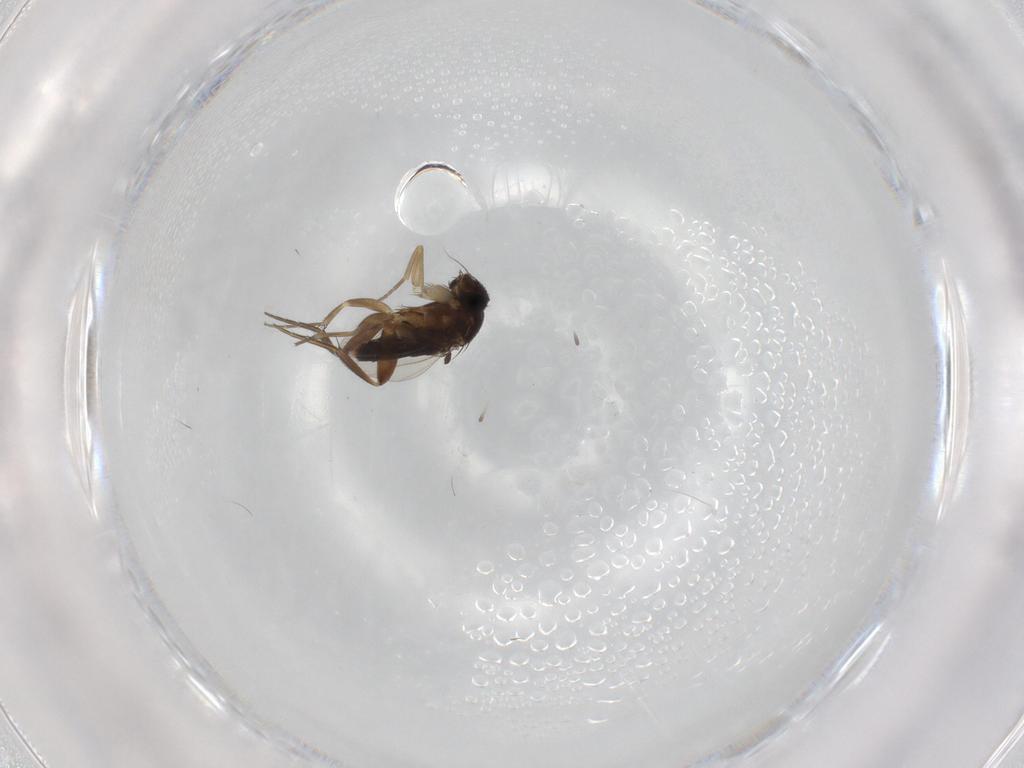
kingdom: Animalia
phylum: Arthropoda
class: Insecta
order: Diptera
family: Phoridae
